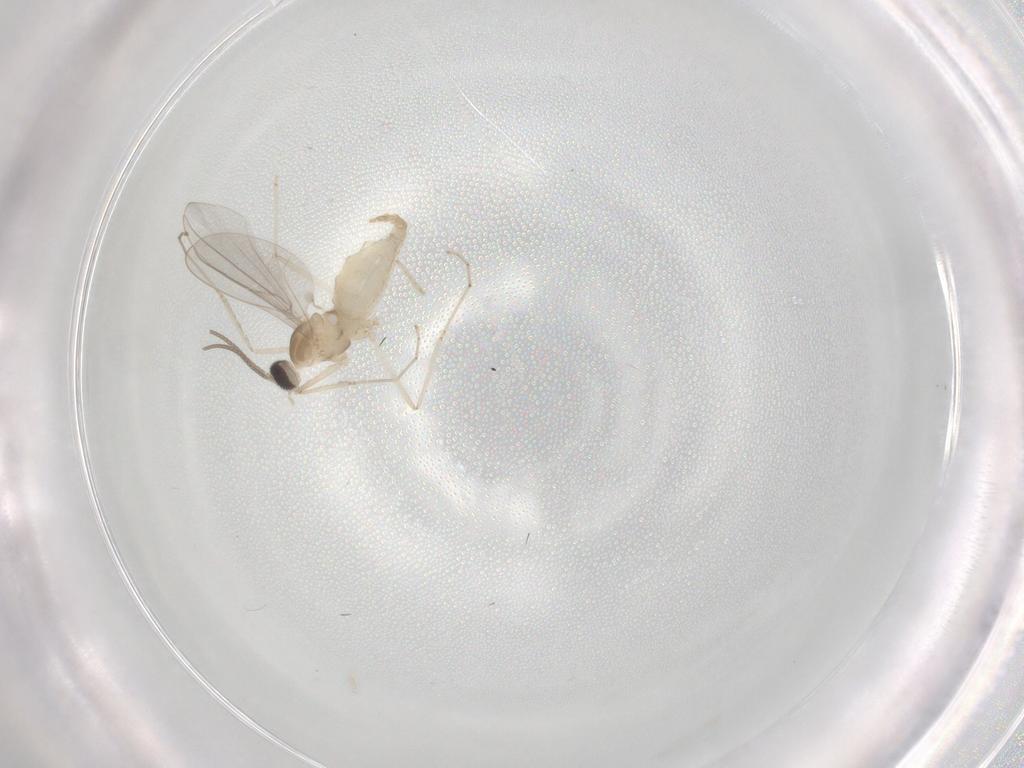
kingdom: Animalia
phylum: Arthropoda
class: Insecta
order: Diptera
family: Cecidomyiidae
